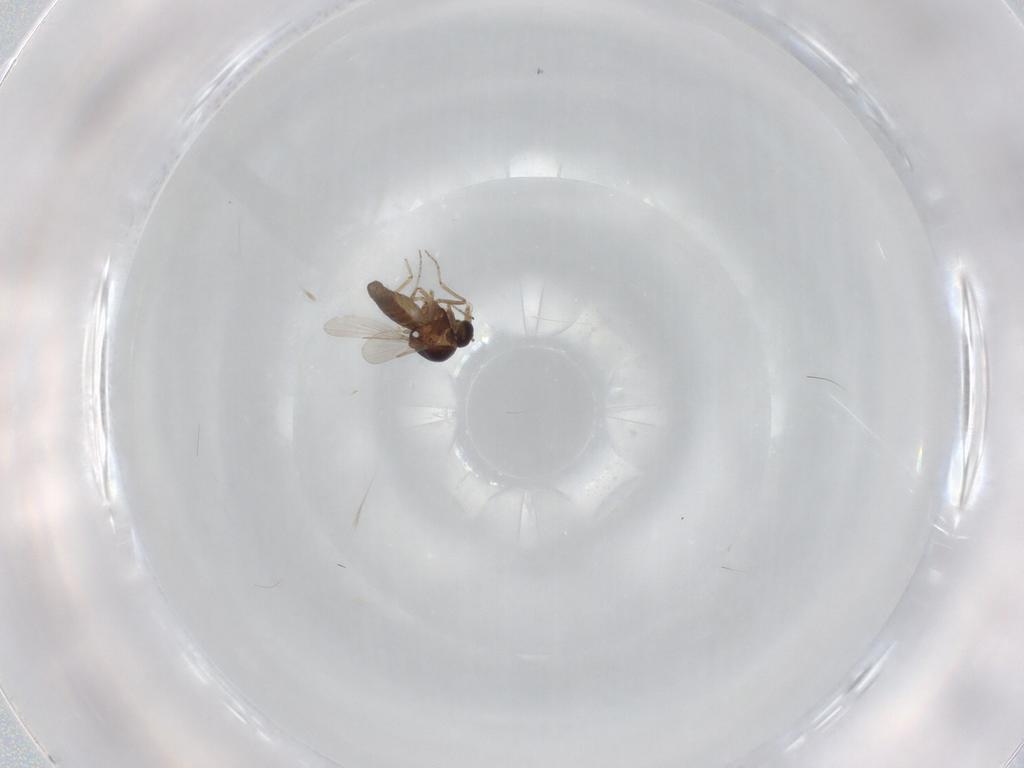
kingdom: Animalia
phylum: Arthropoda
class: Insecta
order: Diptera
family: Ceratopogonidae
